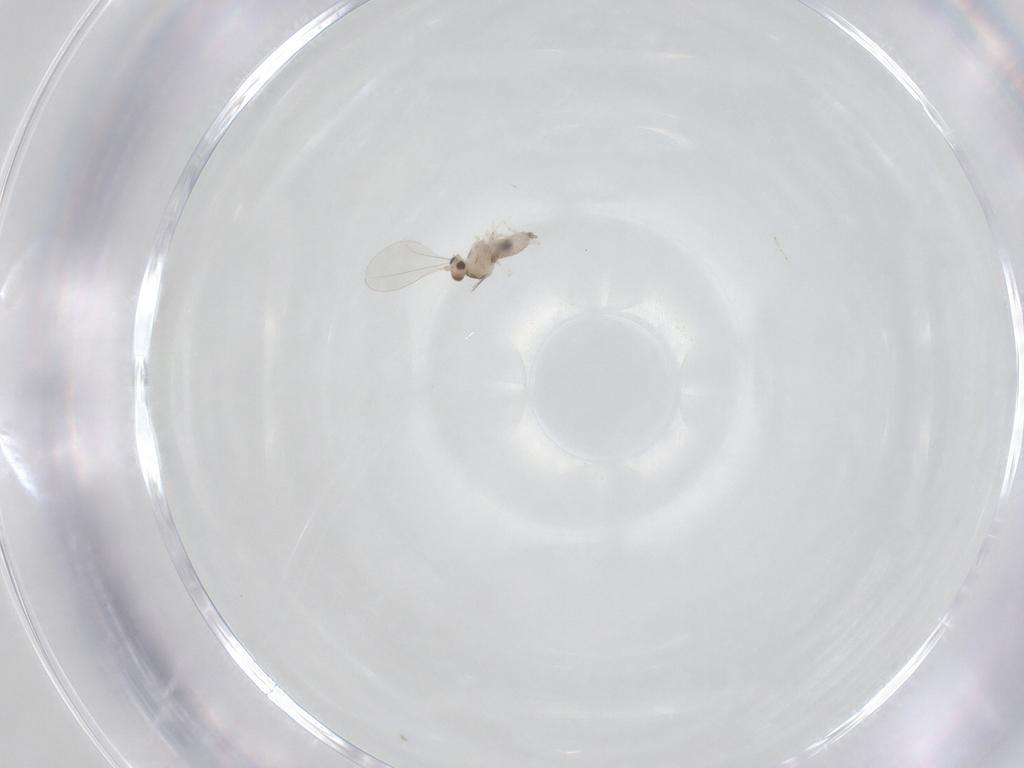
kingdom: Animalia
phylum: Arthropoda
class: Insecta
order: Diptera
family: Cecidomyiidae
